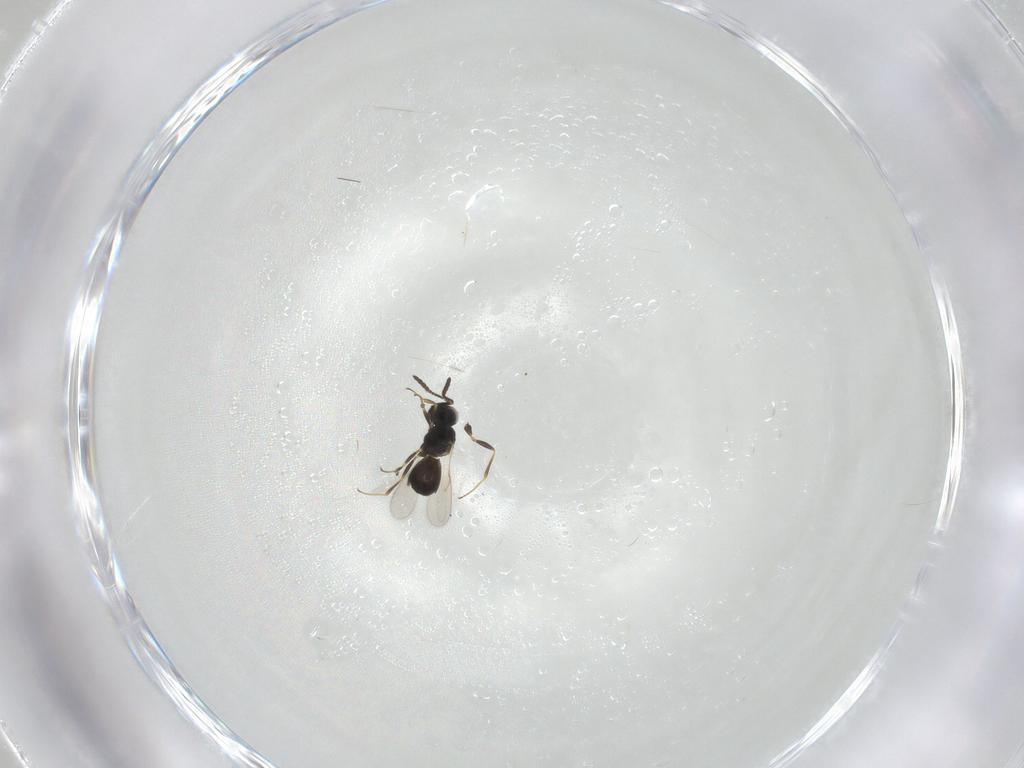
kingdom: Animalia
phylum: Arthropoda
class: Insecta
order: Hymenoptera
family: Scelionidae
